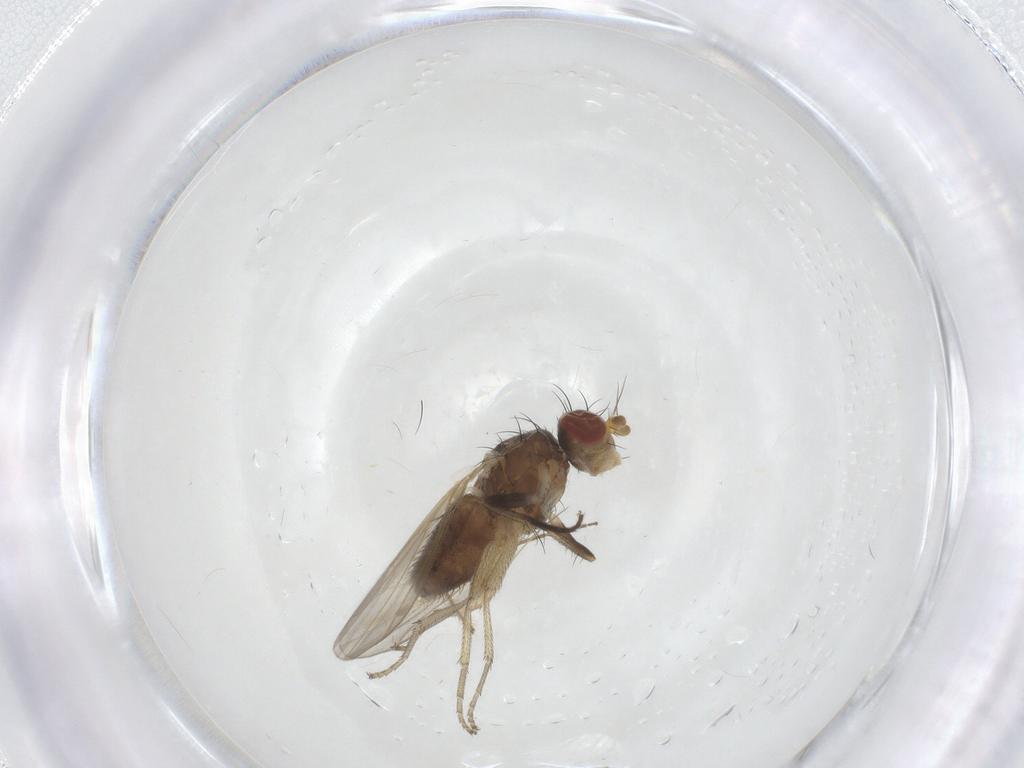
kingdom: Animalia
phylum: Arthropoda
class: Insecta
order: Diptera
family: Heleomyzidae
